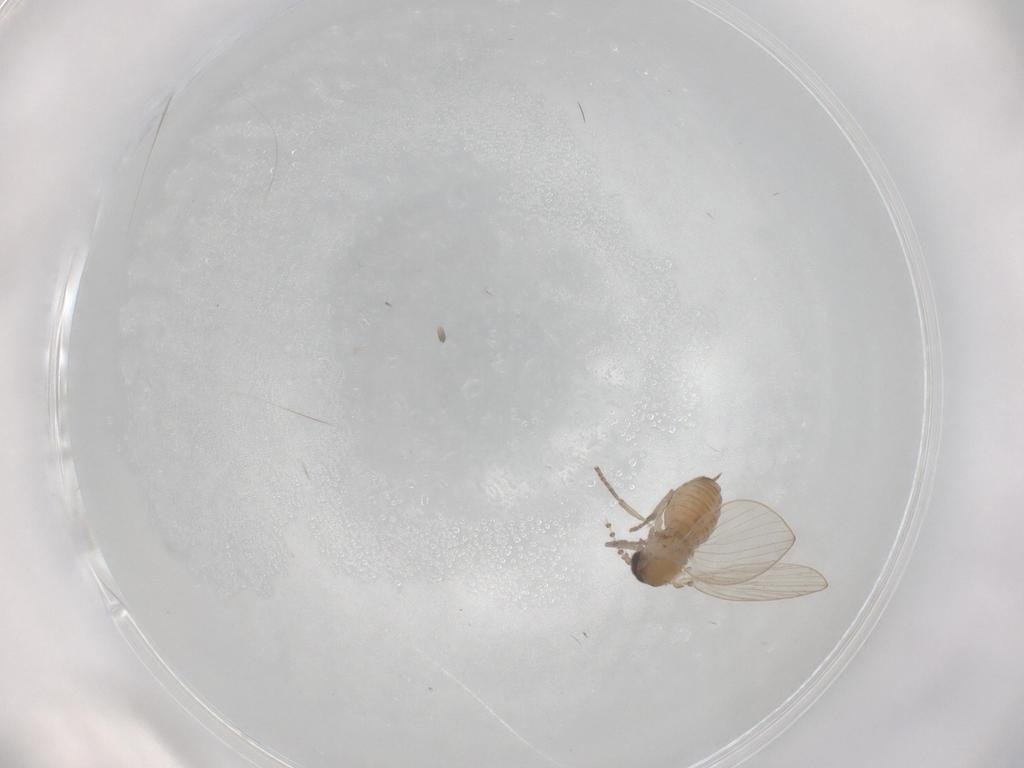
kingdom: Animalia
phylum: Arthropoda
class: Insecta
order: Diptera
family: Psychodidae
